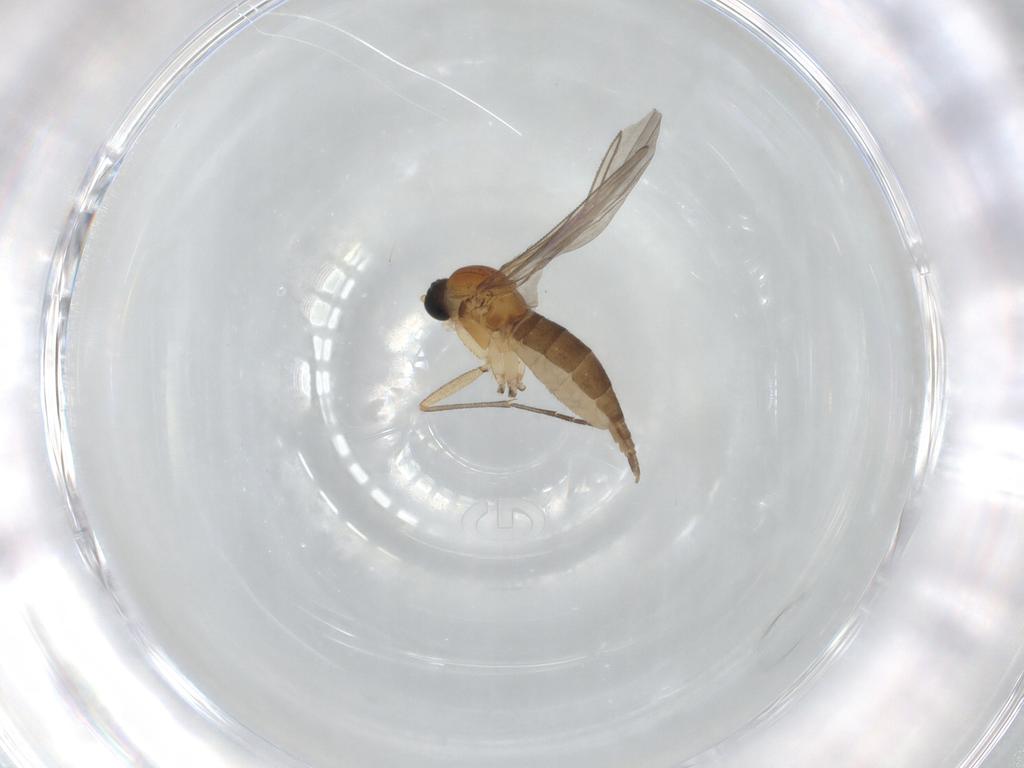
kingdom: Animalia
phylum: Arthropoda
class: Insecta
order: Diptera
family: Sciaridae
